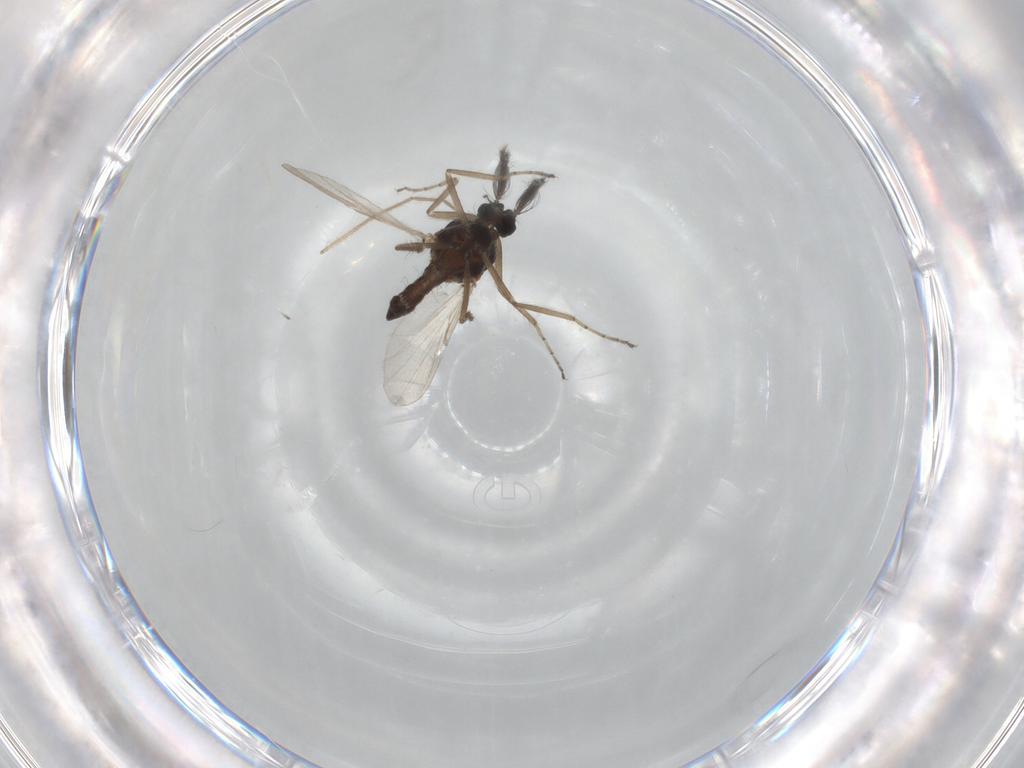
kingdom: Animalia
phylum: Arthropoda
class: Insecta
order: Diptera
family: Ceratopogonidae
